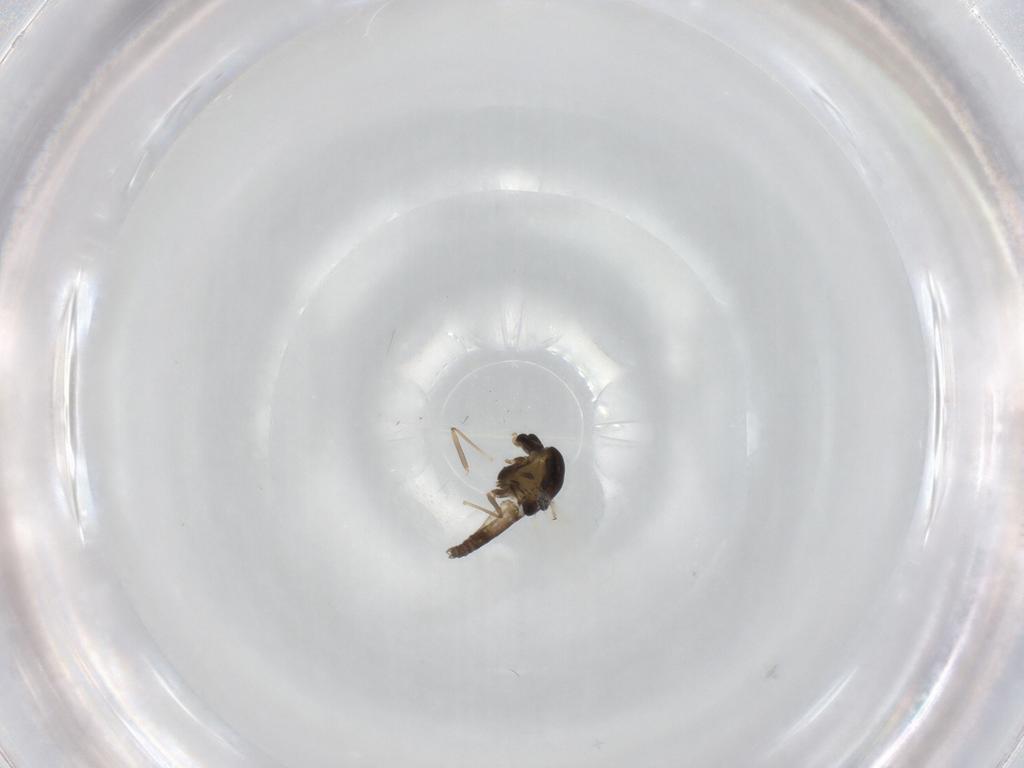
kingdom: Animalia
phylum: Arthropoda
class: Insecta
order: Diptera
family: Chironomidae
